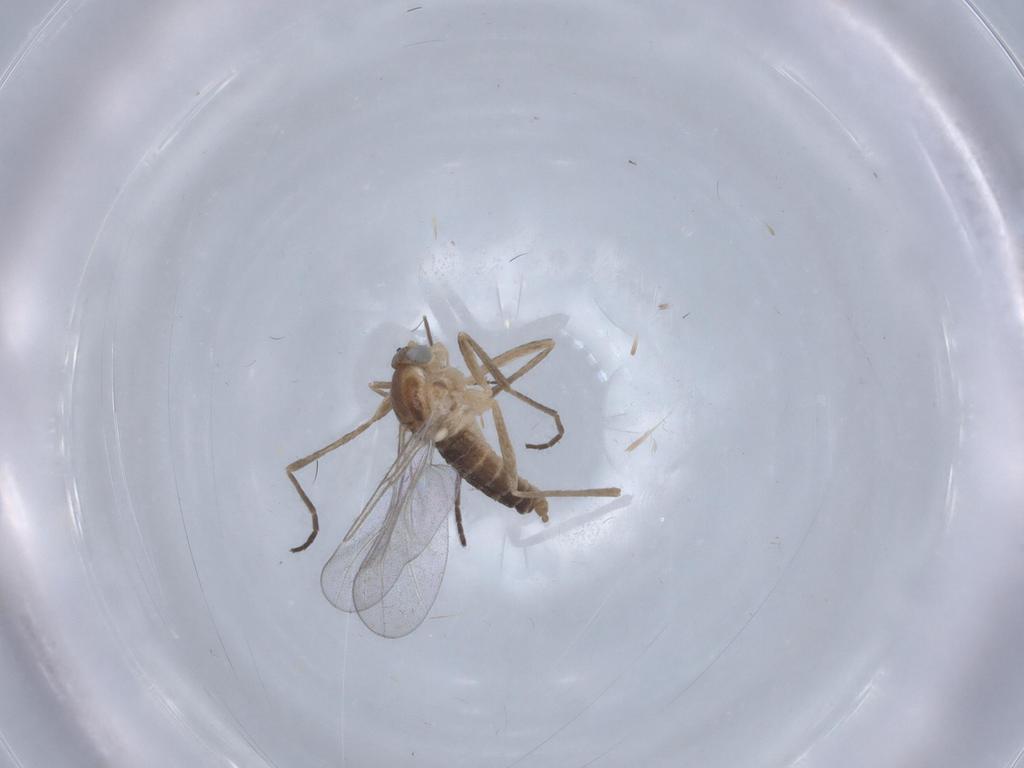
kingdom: Animalia
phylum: Arthropoda
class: Insecta
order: Diptera
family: Cecidomyiidae
